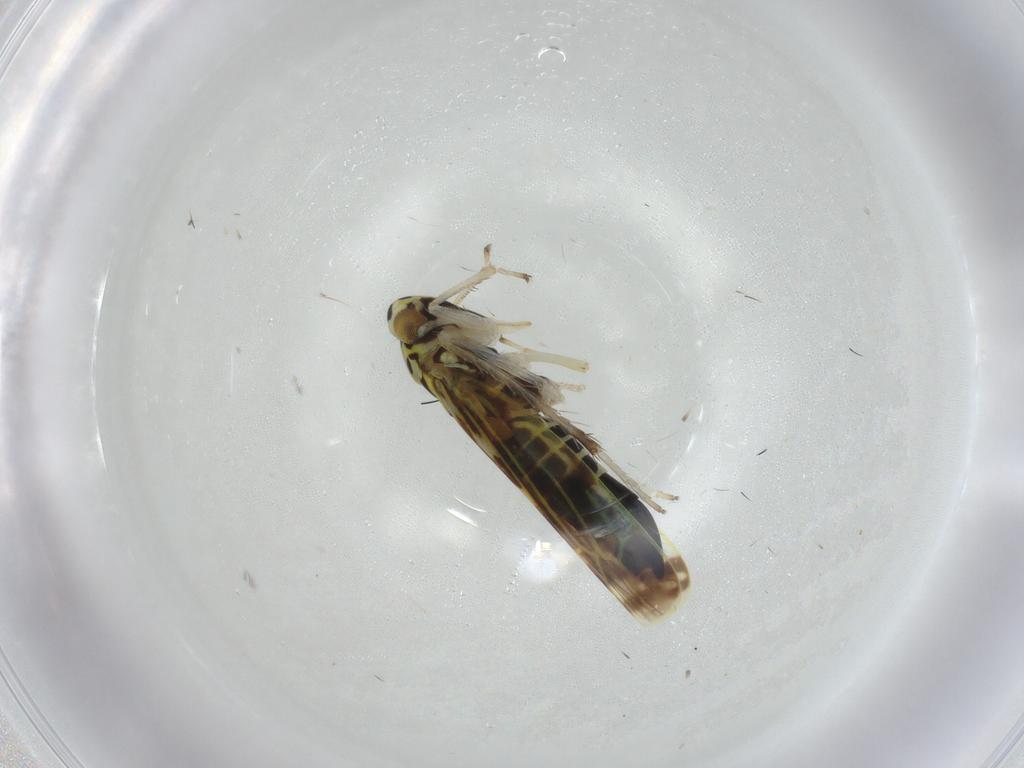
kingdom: Animalia
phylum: Arthropoda
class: Insecta
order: Hemiptera
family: Cicadellidae
